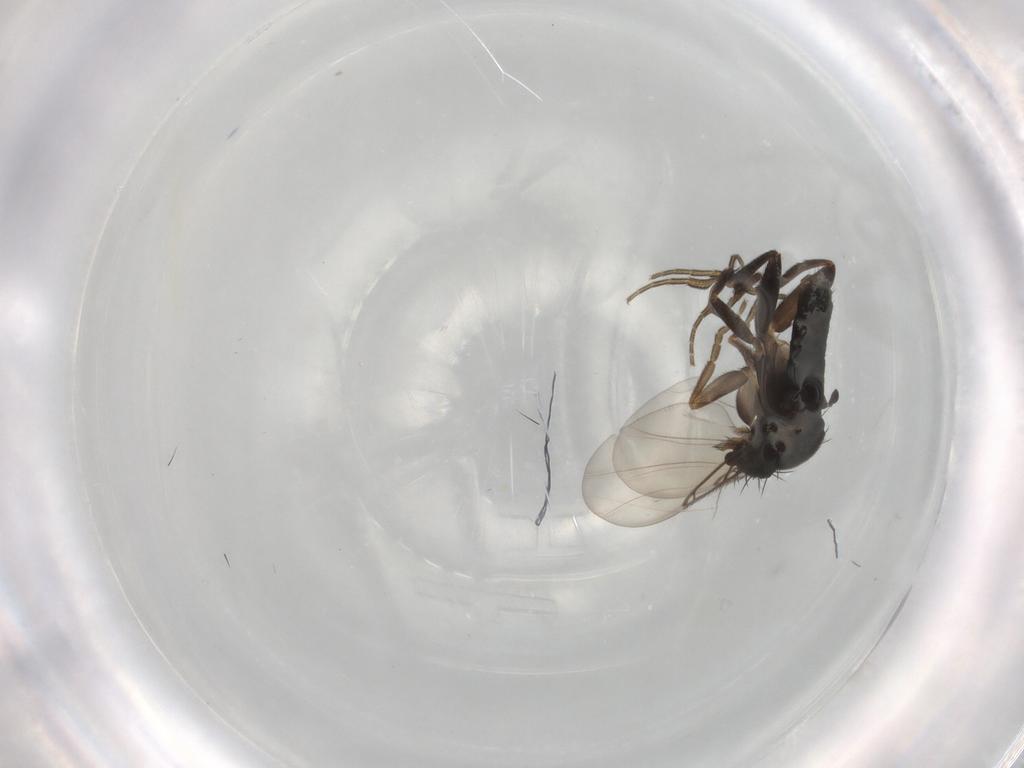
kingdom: Animalia
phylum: Arthropoda
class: Insecta
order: Diptera
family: Phoridae
